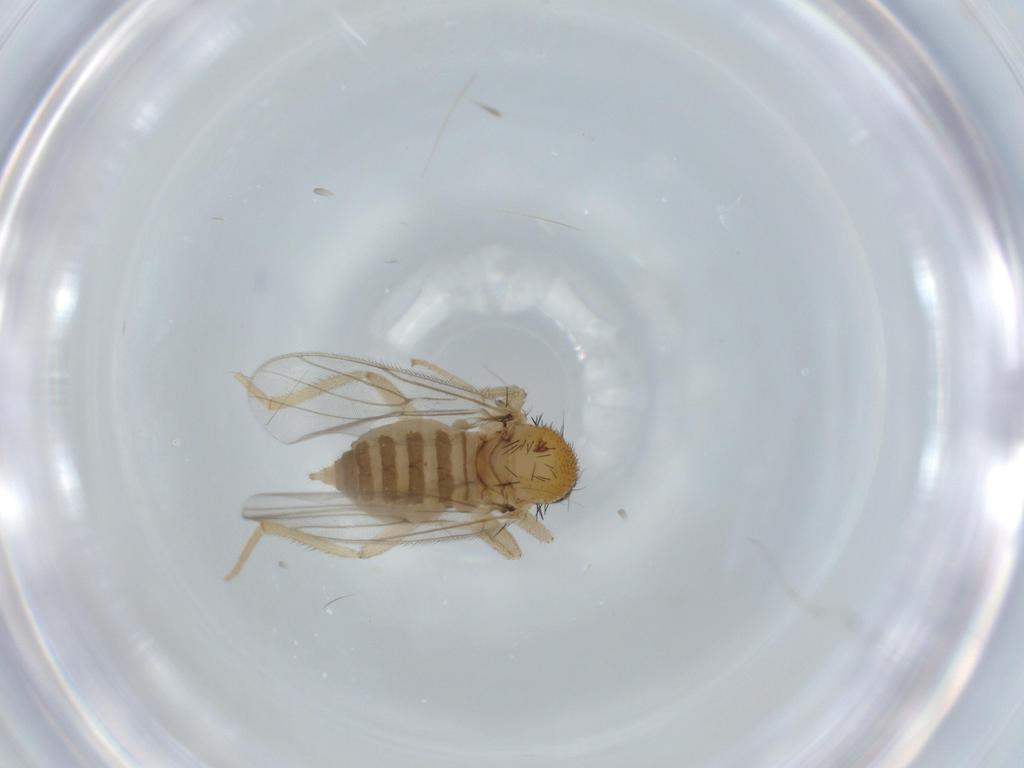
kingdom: Animalia
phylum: Arthropoda
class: Insecta
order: Diptera
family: Hybotidae
